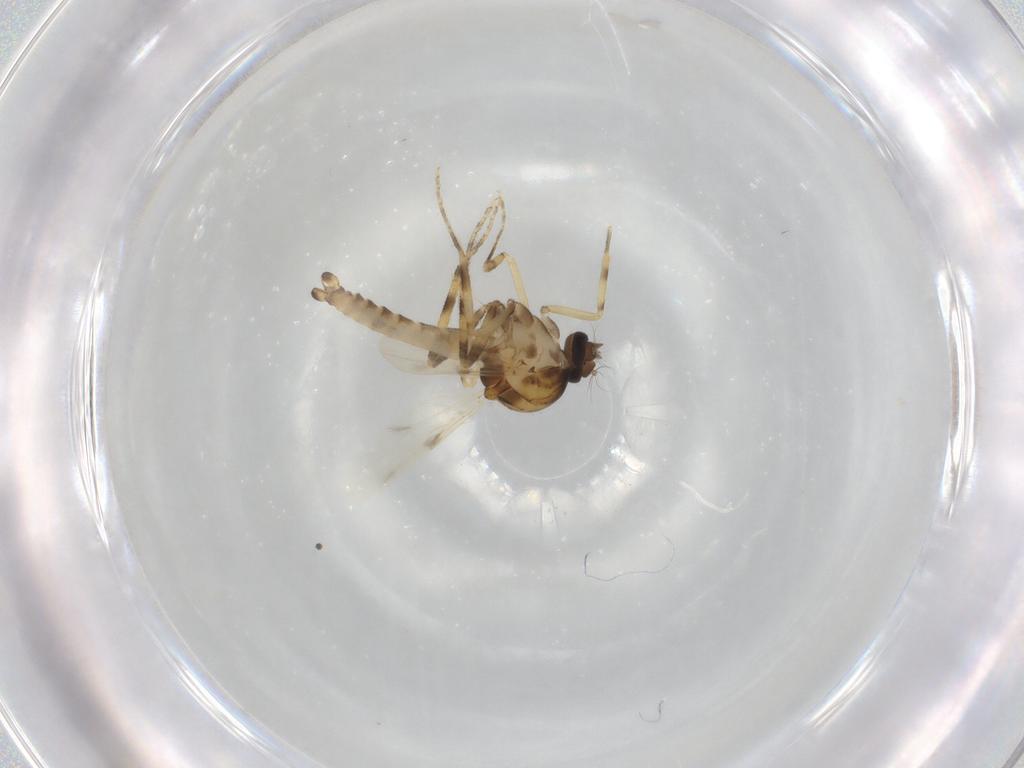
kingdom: Animalia
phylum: Arthropoda
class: Insecta
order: Diptera
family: Ceratopogonidae
